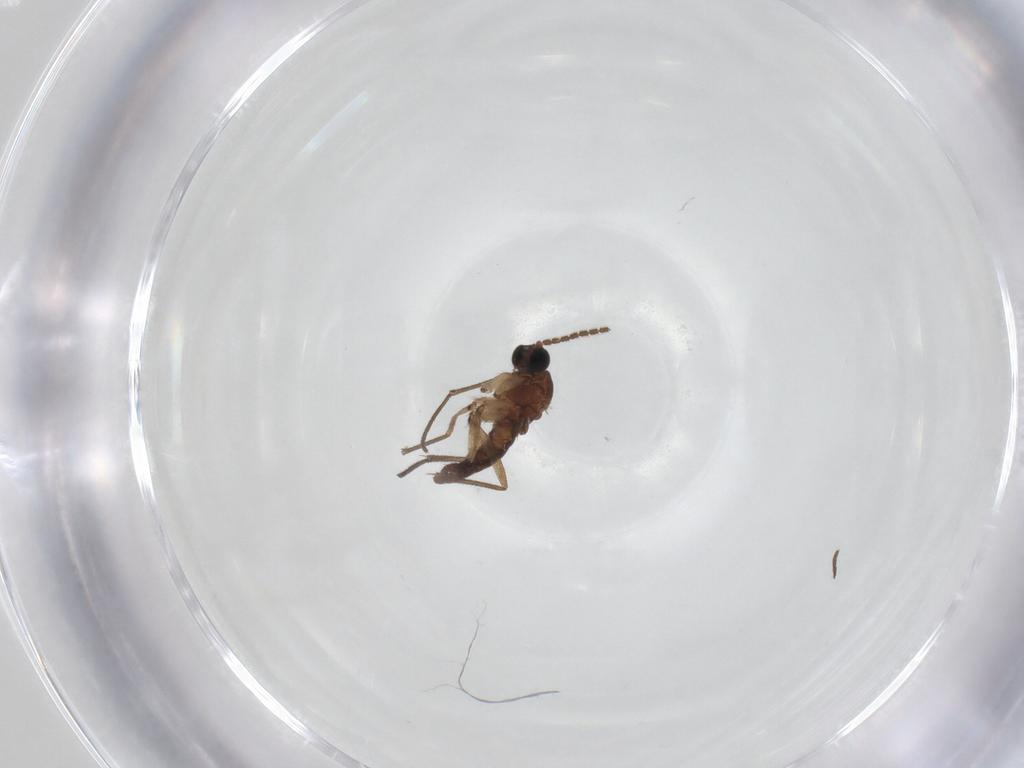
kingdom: Animalia
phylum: Arthropoda
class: Insecta
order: Diptera
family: Sciaridae
